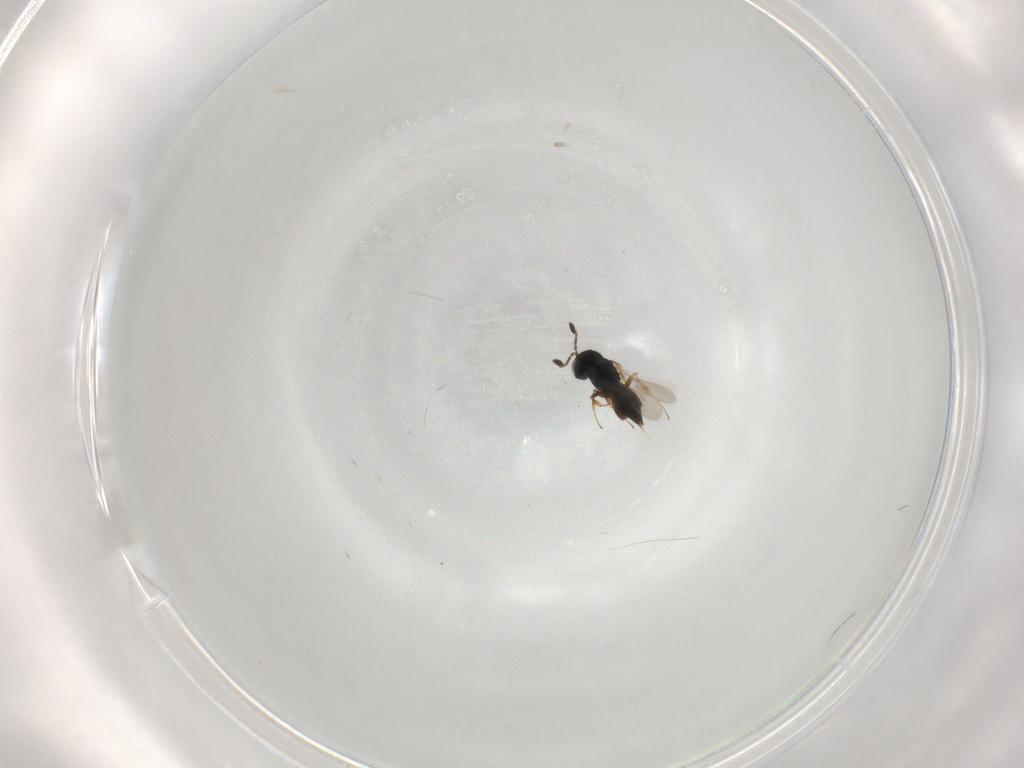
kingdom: Animalia
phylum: Arthropoda
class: Insecta
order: Hymenoptera
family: Scelionidae
